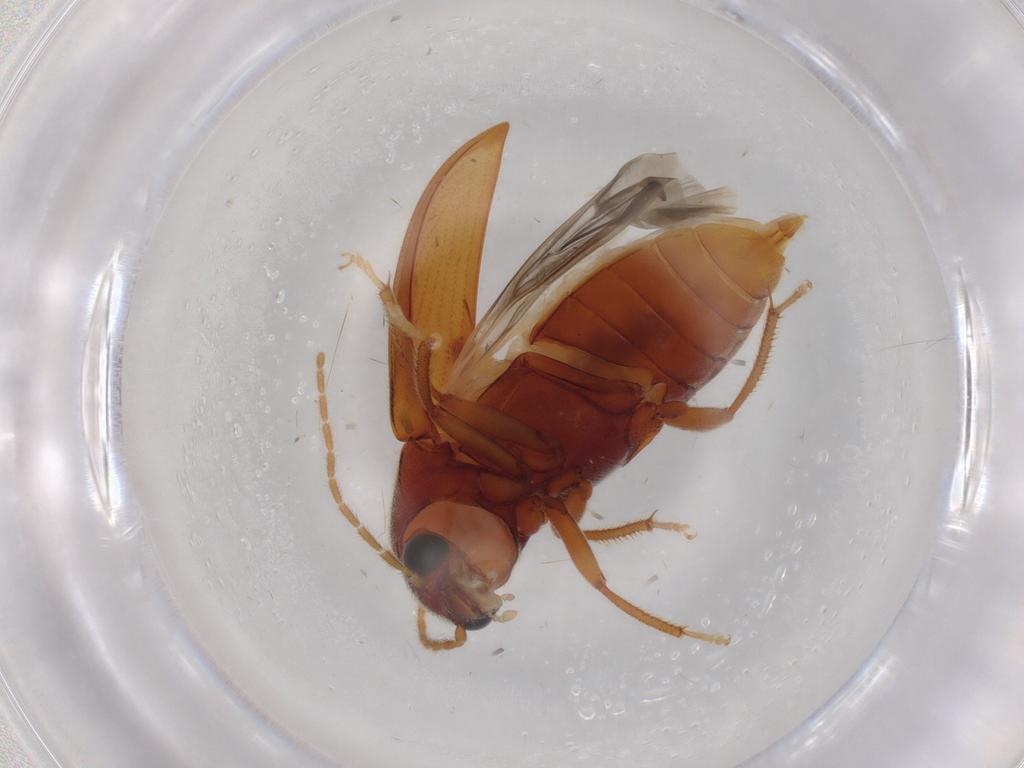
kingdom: Animalia
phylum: Arthropoda
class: Insecta
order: Coleoptera
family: Ptilodactylidae
